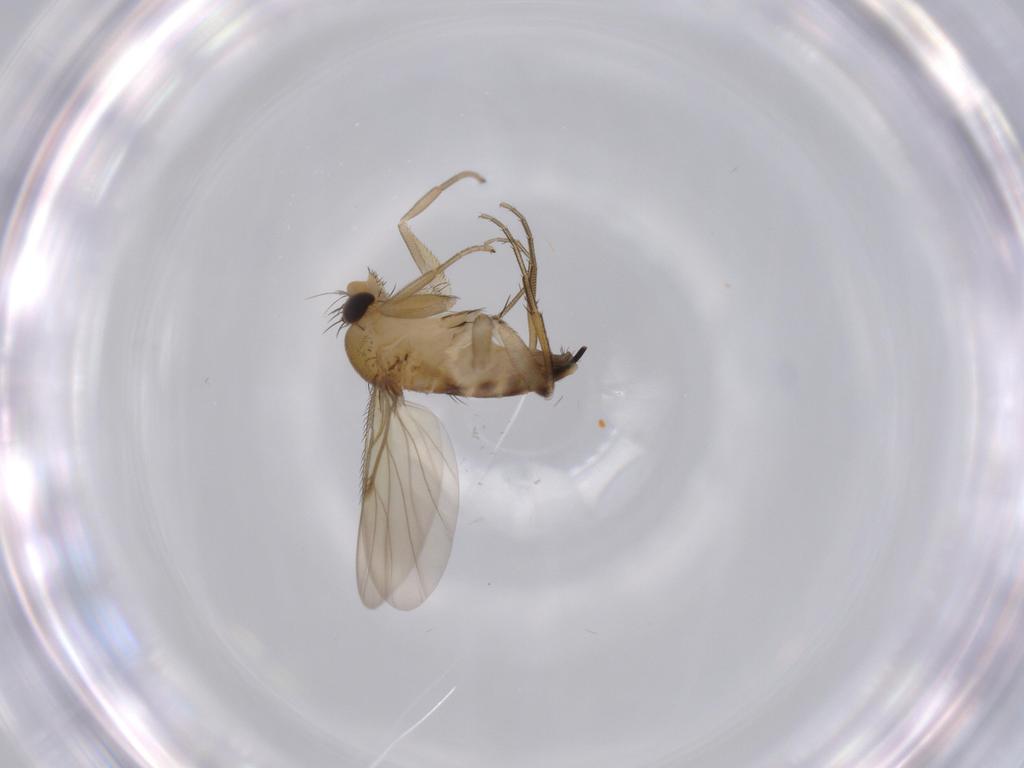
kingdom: Animalia
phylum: Arthropoda
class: Insecta
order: Diptera
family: Phoridae
